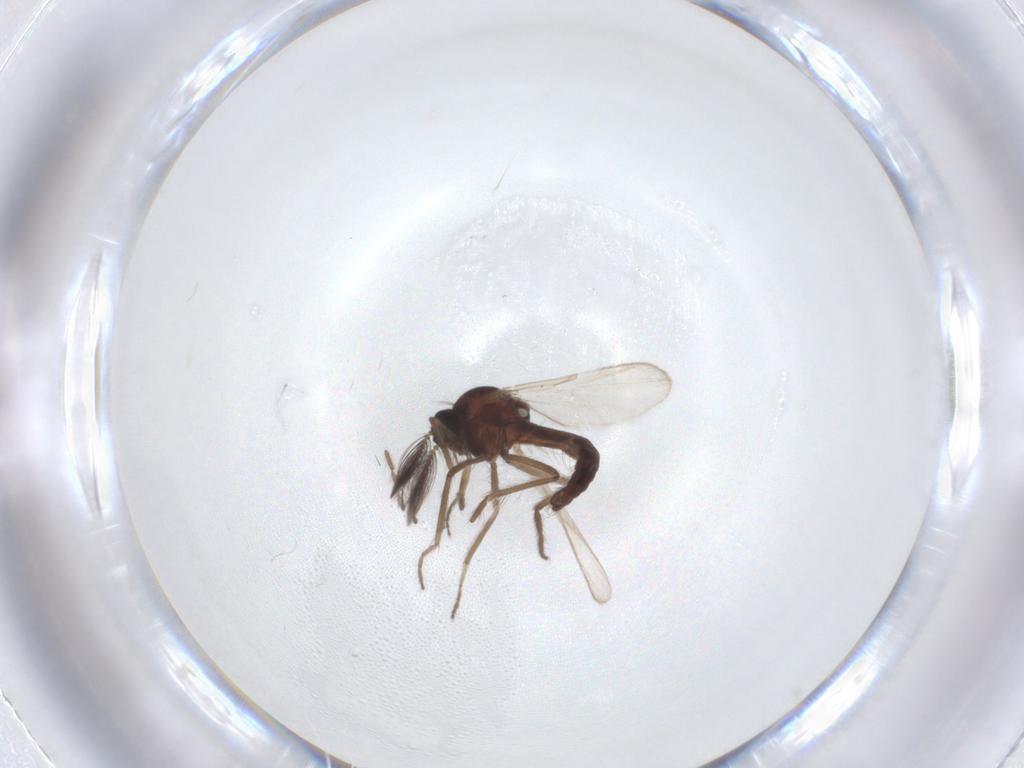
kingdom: Animalia
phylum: Arthropoda
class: Insecta
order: Diptera
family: Ceratopogonidae
